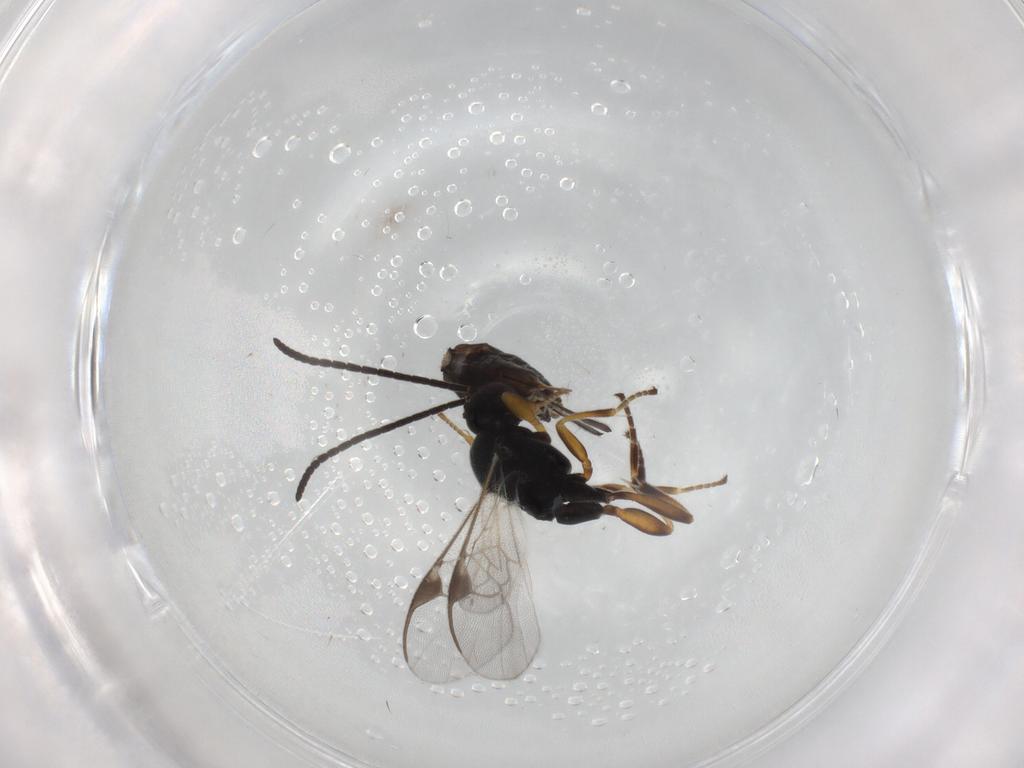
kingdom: Animalia
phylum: Arthropoda
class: Insecta
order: Hymenoptera
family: Braconidae
